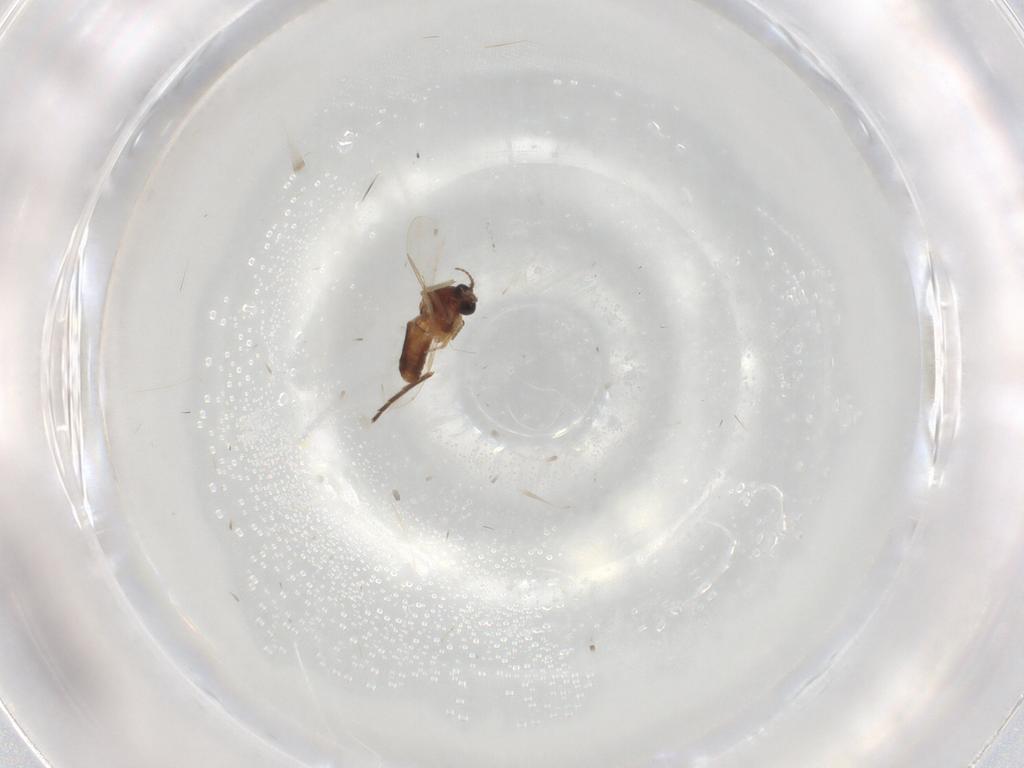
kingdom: Animalia
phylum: Arthropoda
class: Insecta
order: Diptera
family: Ceratopogonidae
